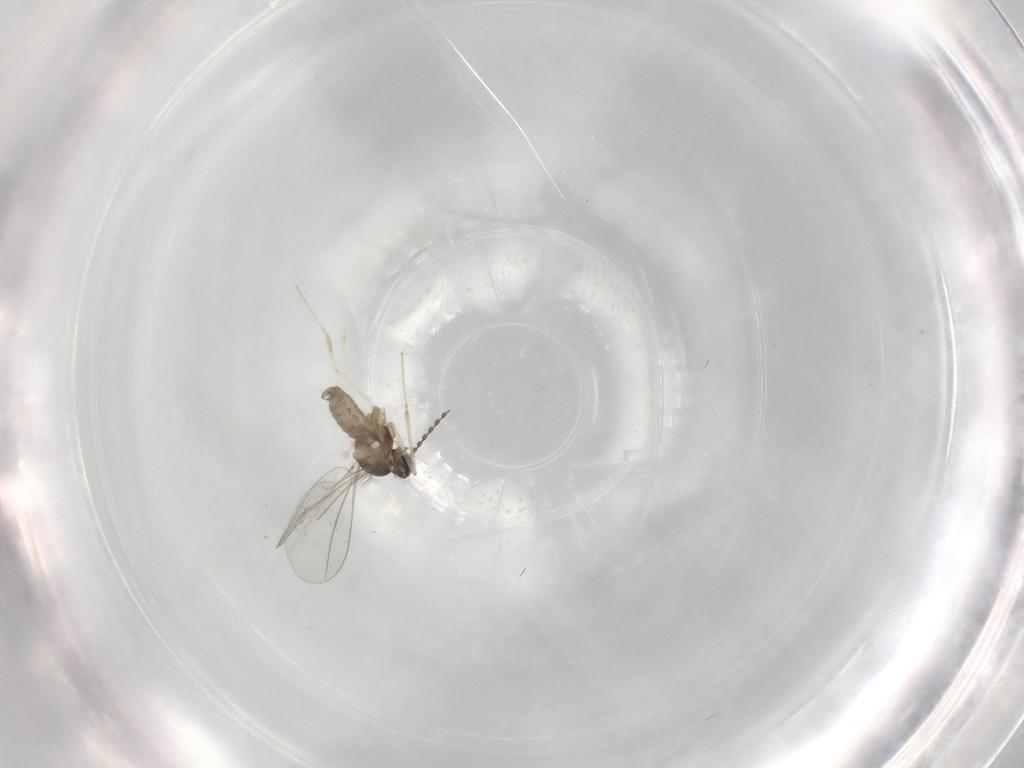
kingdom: Animalia
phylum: Arthropoda
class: Insecta
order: Diptera
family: Cecidomyiidae
